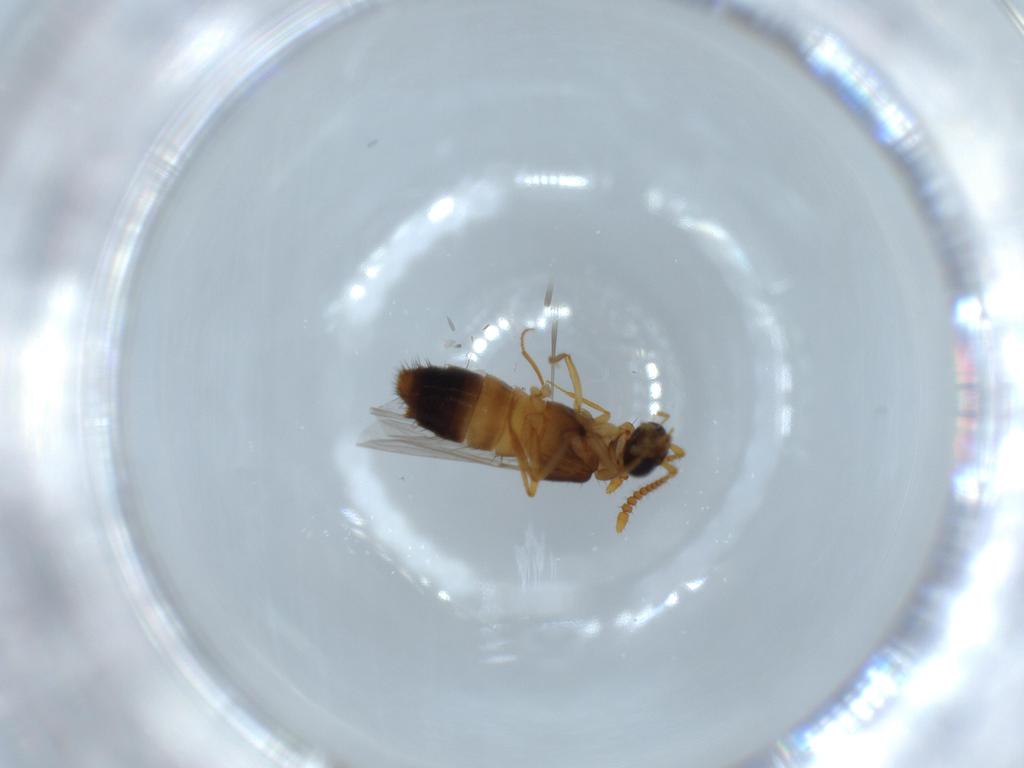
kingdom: Animalia
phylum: Arthropoda
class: Insecta
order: Coleoptera
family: Staphylinidae
